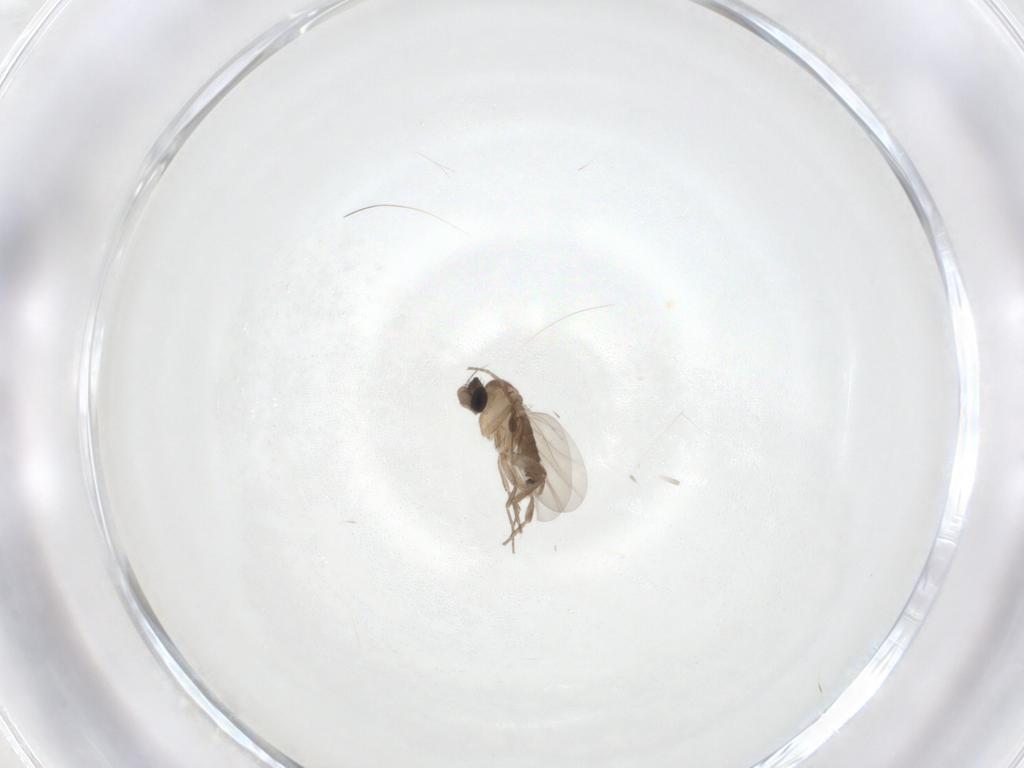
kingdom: Animalia
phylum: Arthropoda
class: Insecta
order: Diptera
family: Phoridae
